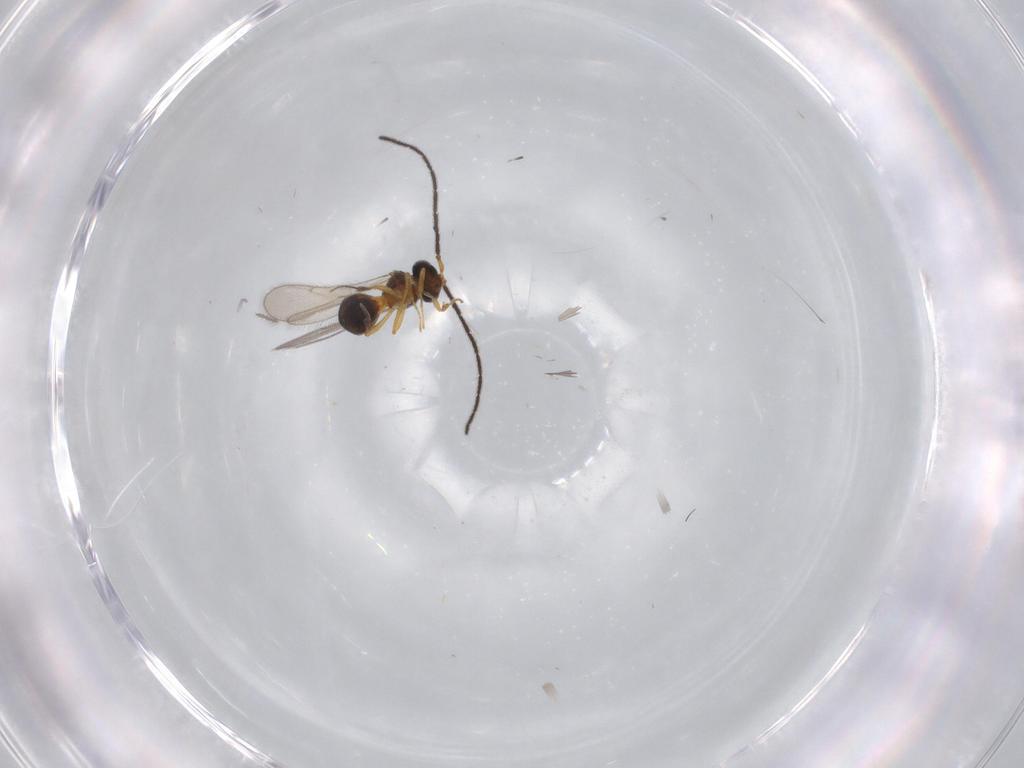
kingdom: Animalia
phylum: Arthropoda
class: Insecta
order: Hymenoptera
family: Scelionidae
